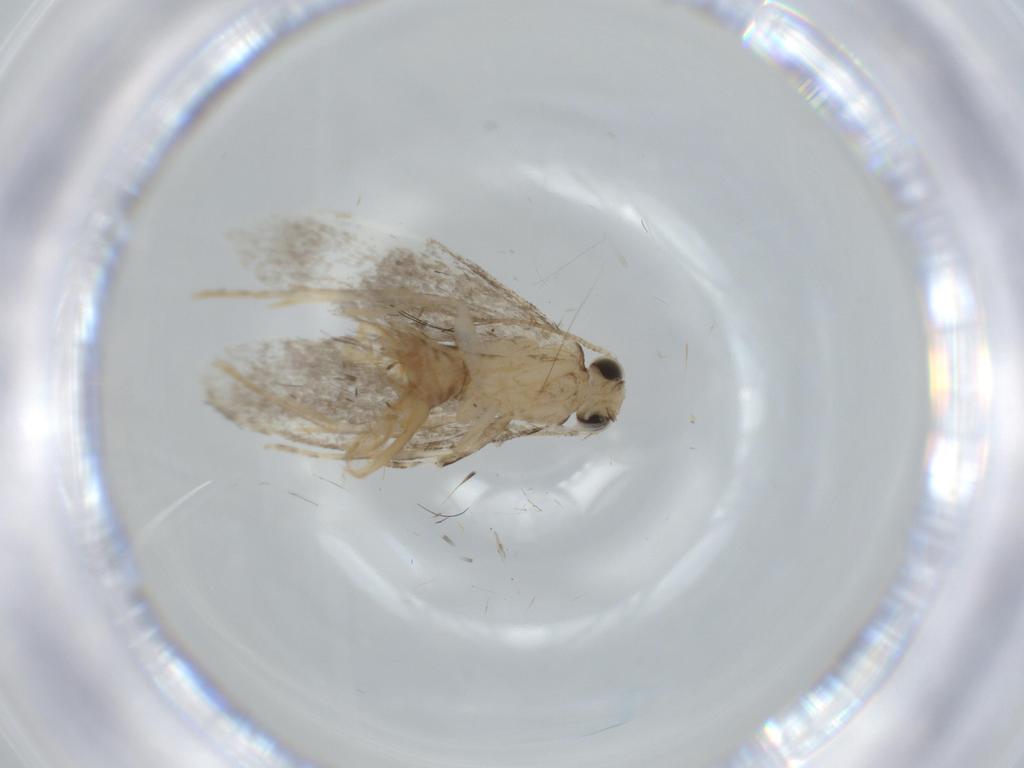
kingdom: Animalia
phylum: Arthropoda
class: Insecta
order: Lepidoptera
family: Tineidae
